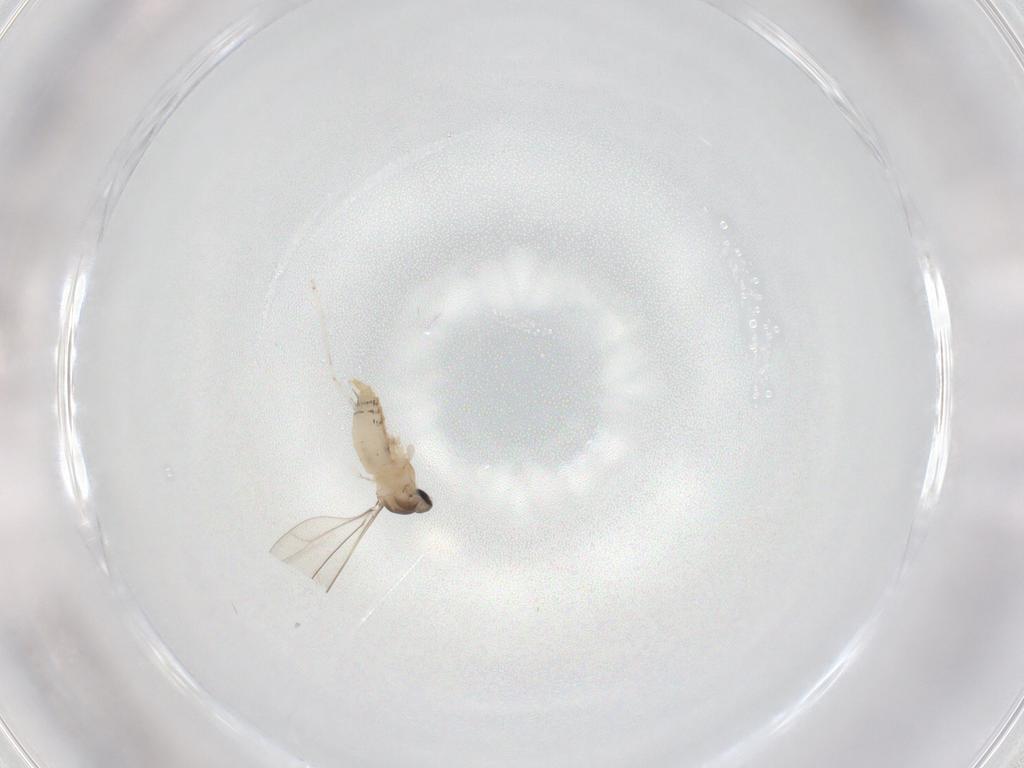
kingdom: Animalia
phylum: Arthropoda
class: Insecta
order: Diptera
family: Cecidomyiidae
